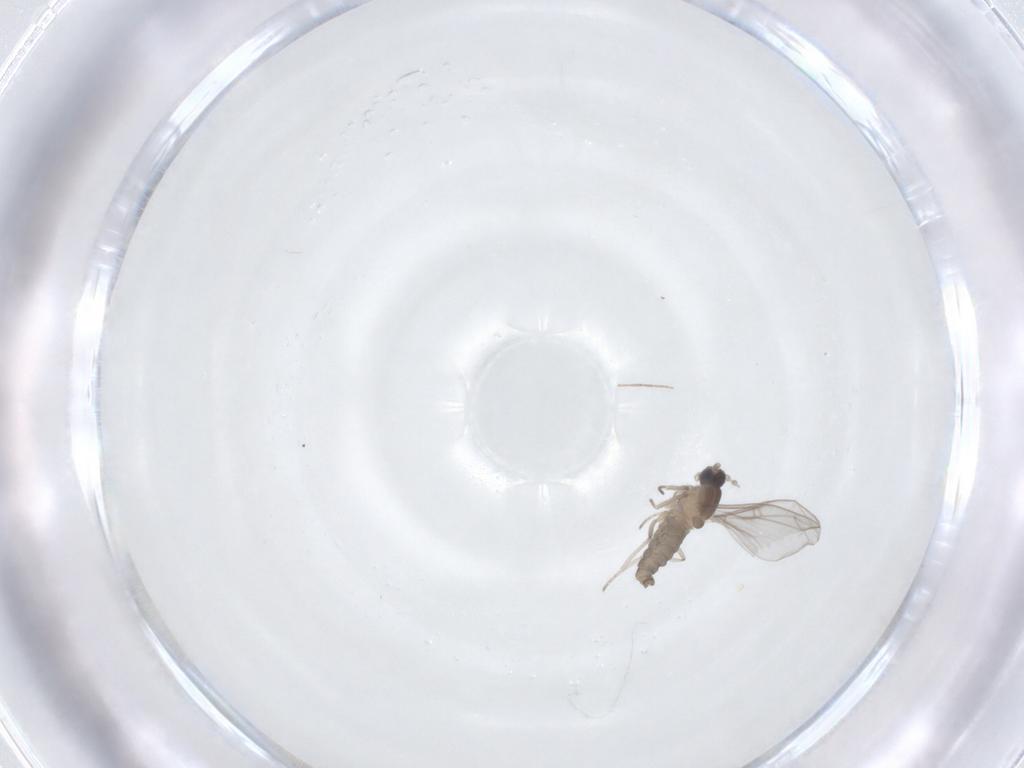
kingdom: Animalia
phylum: Arthropoda
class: Insecta
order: Diptera
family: Cecidomyiidae
